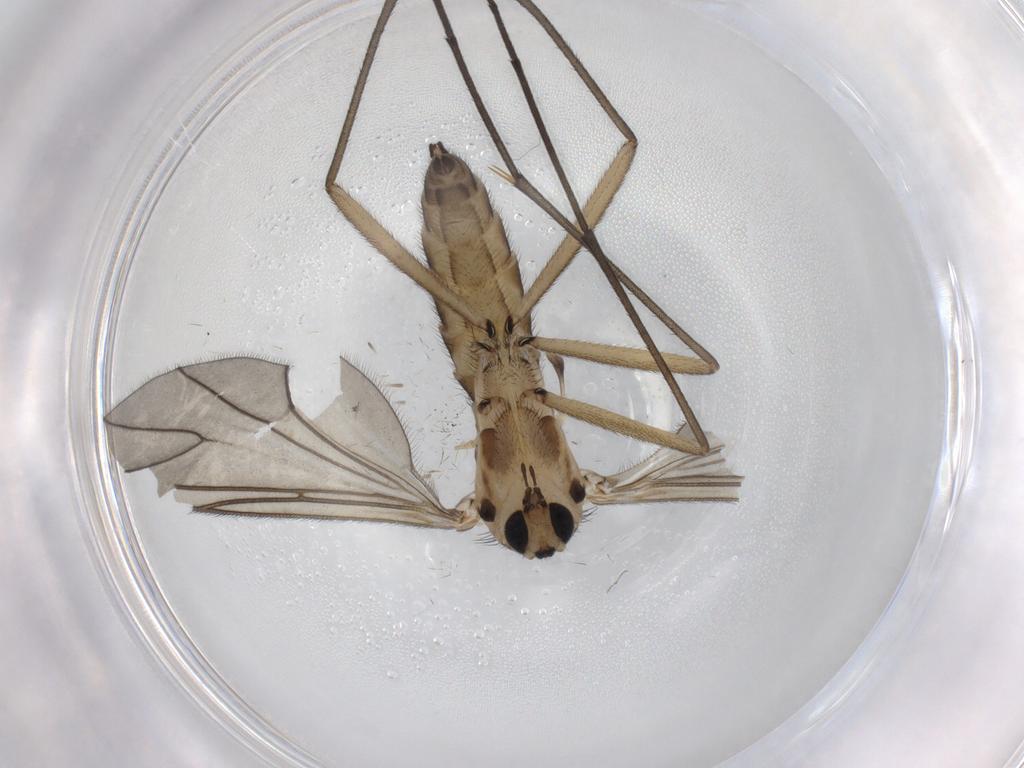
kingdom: Animalia
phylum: Arthropoda
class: Insecta
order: Diptera
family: Sciaridae
